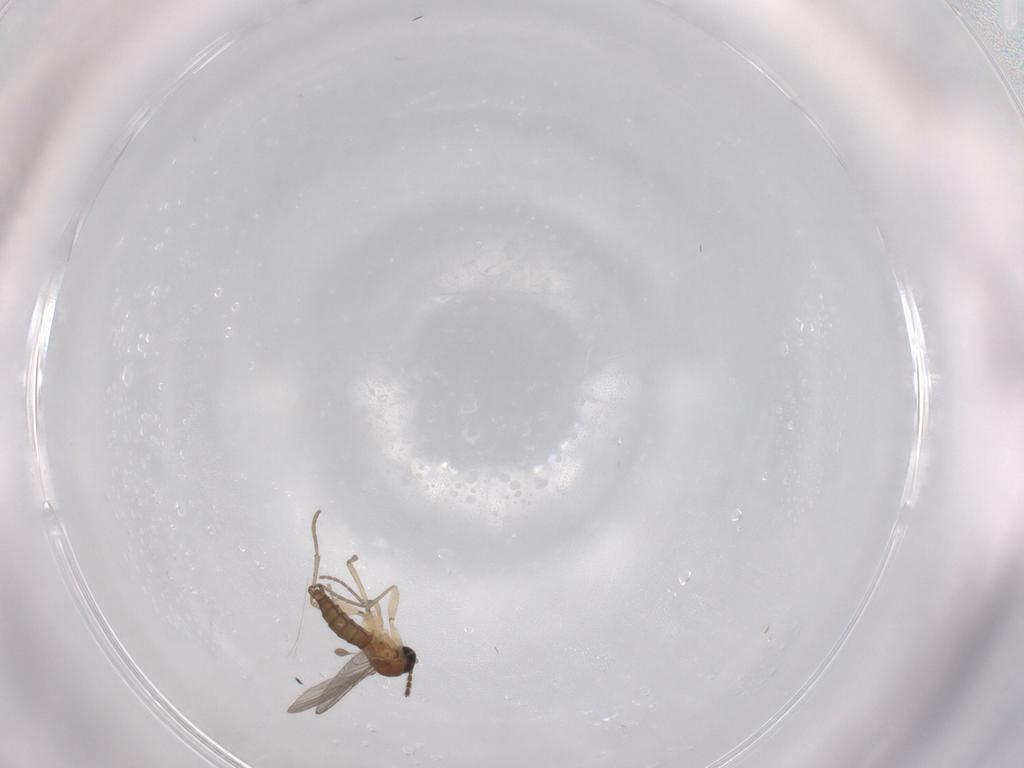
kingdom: Animalia
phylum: Arthropoda
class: Insecta
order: Diptera
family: Sciaridae
